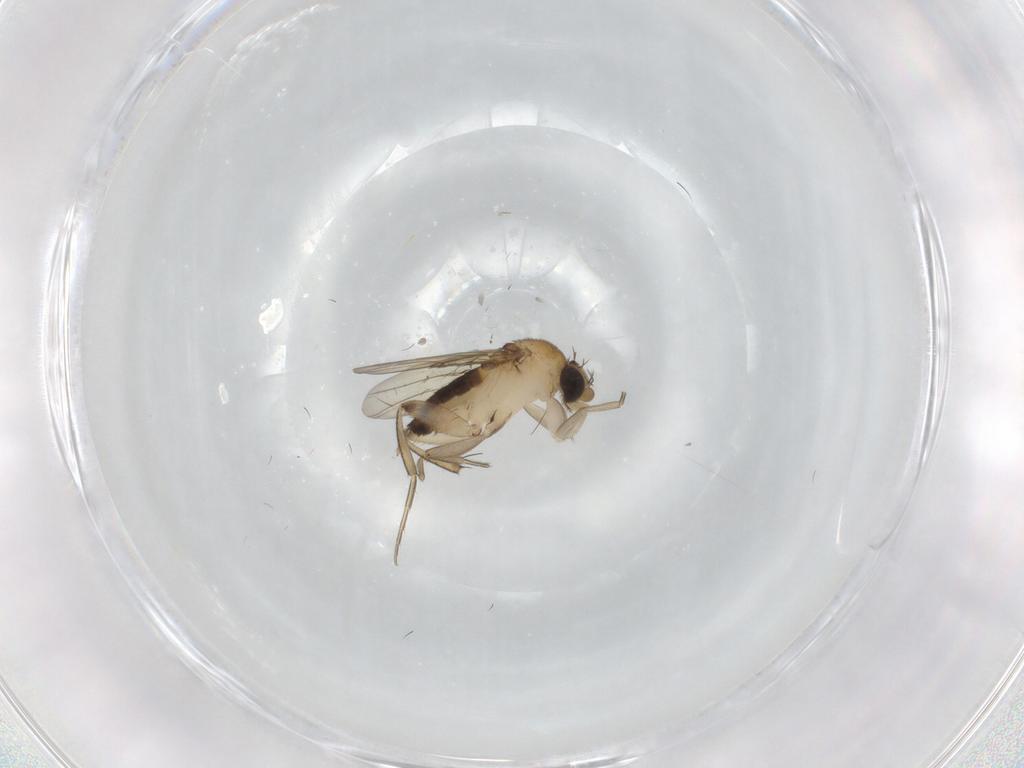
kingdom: Animalia
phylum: Arthropoda
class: Insecta
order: Diptera
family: Phoridae
